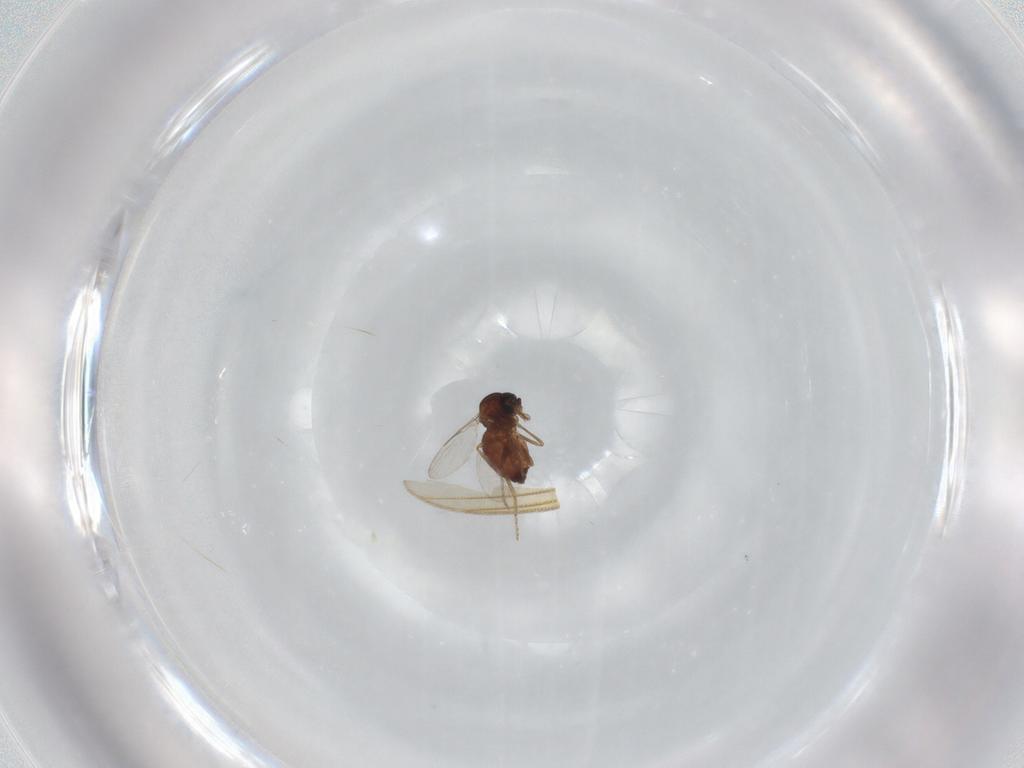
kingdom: Animalia
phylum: Arthropoda
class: Insecta
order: Diptera
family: Ceratopogonidae
